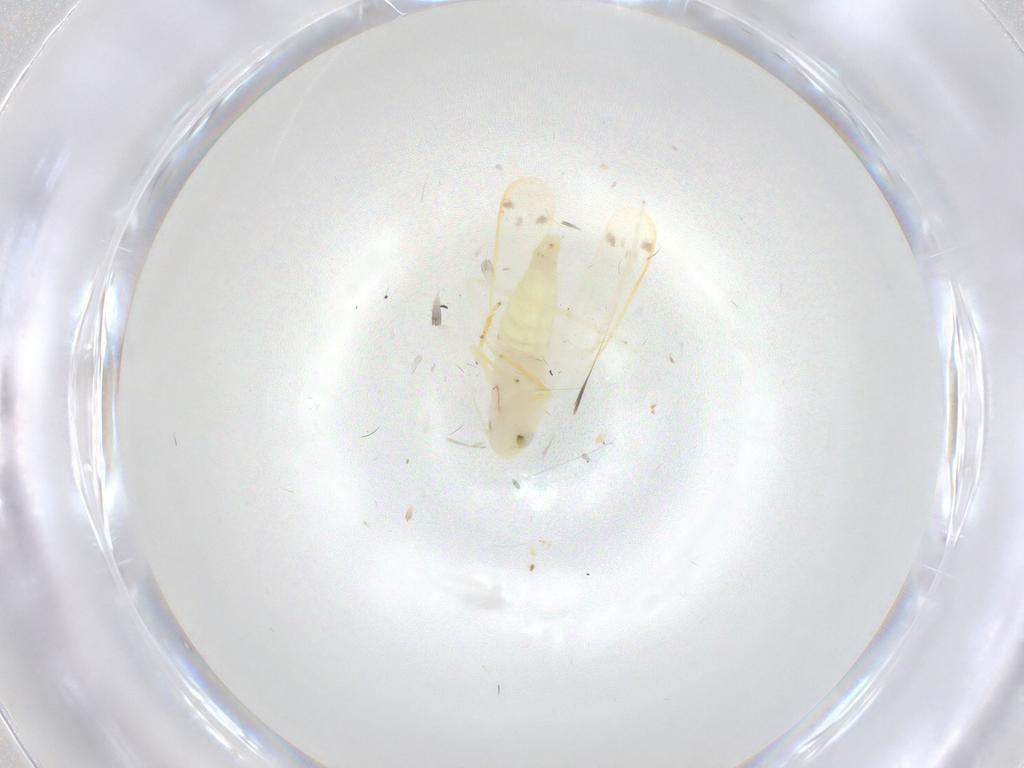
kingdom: Animalia
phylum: Arthropoda
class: Insecta
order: Hemiptera
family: Cicadellidae
